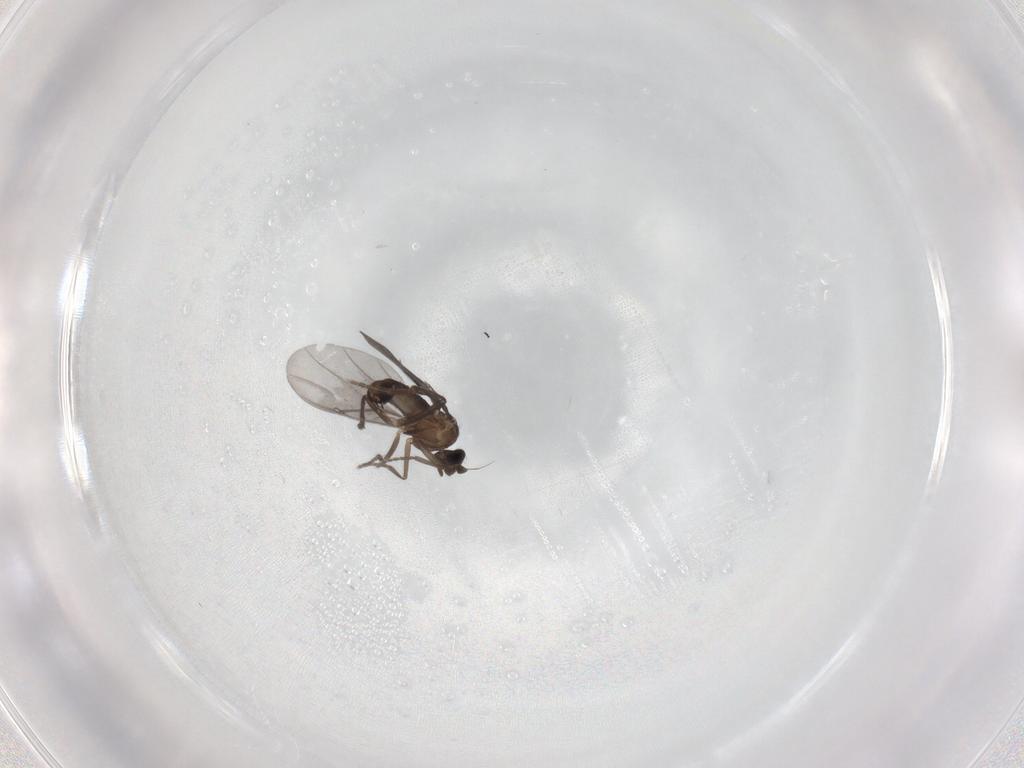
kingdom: Animalia
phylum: Arthropoda
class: Insecta
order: Diptera
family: Phoridae
